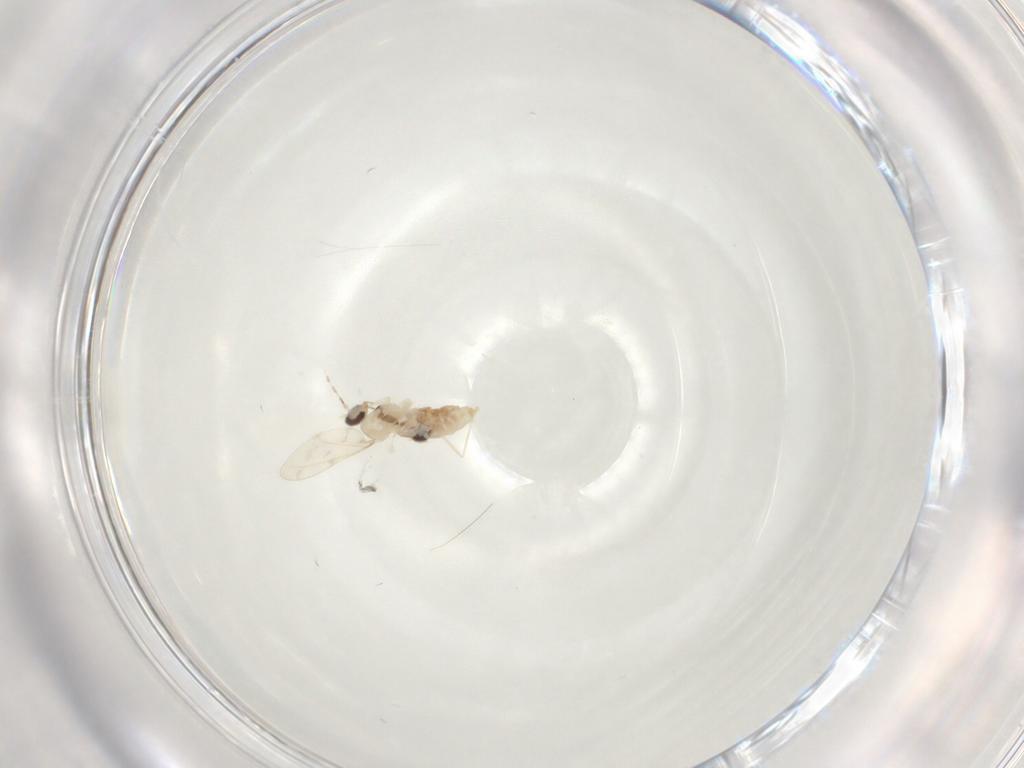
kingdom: Animalia
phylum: Arthropoda
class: Insecta
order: Diptera
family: Cecidomyiidae
